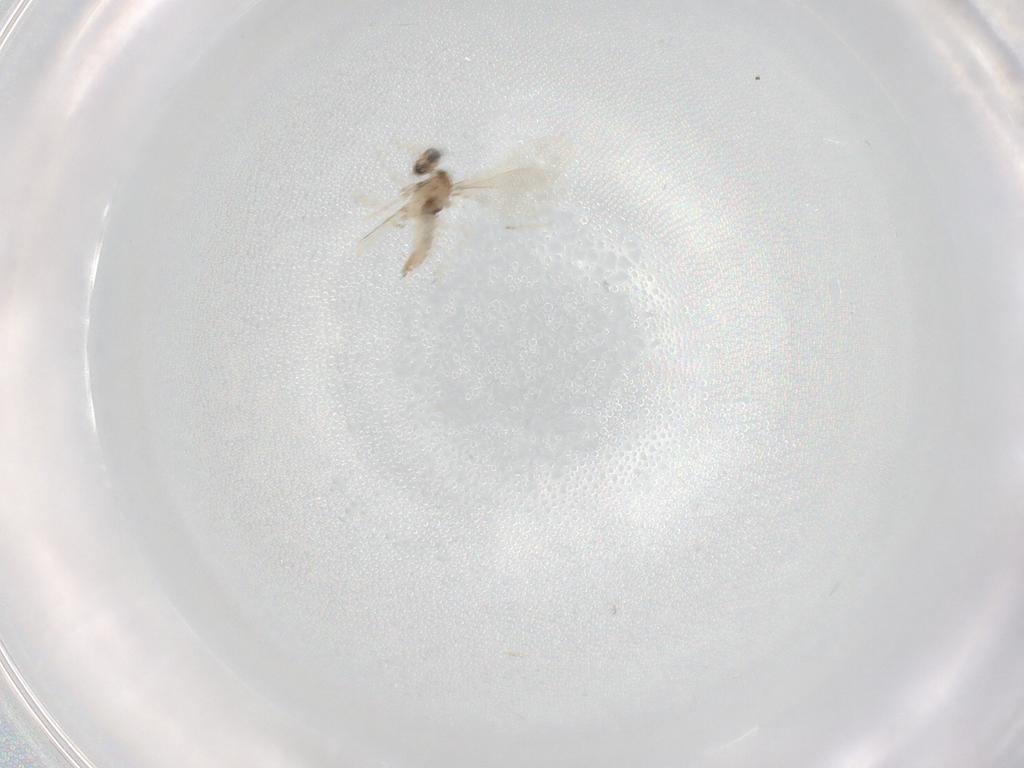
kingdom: Animalia
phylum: Arthropoda
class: Insecta
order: Diptera
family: Cecidomyiidae
